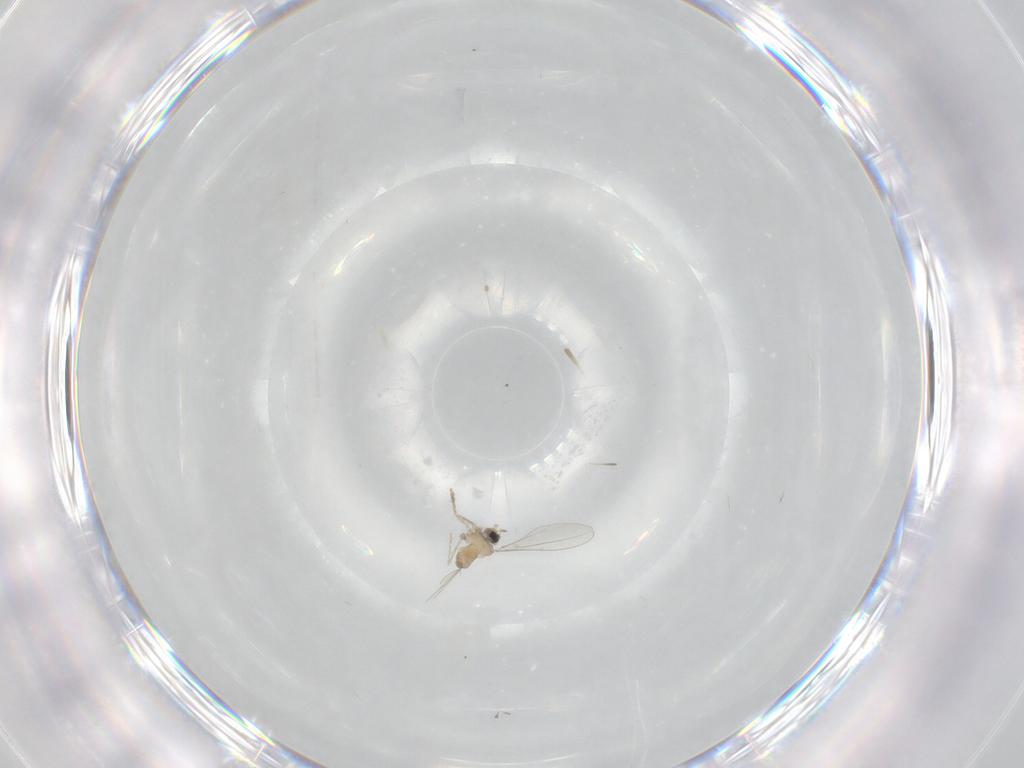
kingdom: Animalia
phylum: Arthropoda
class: Insecta
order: Diptera
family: Cecidomyiidae
